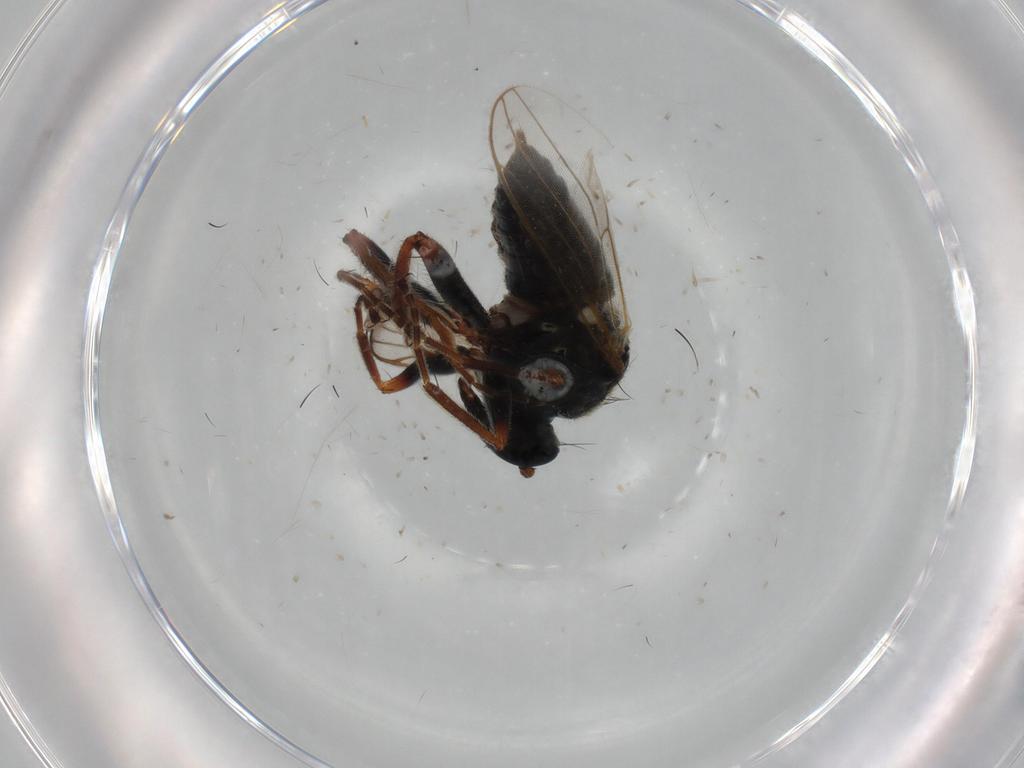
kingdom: Animalia
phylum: Arthropoda
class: Insecta
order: Diptera
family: Hybotidae
